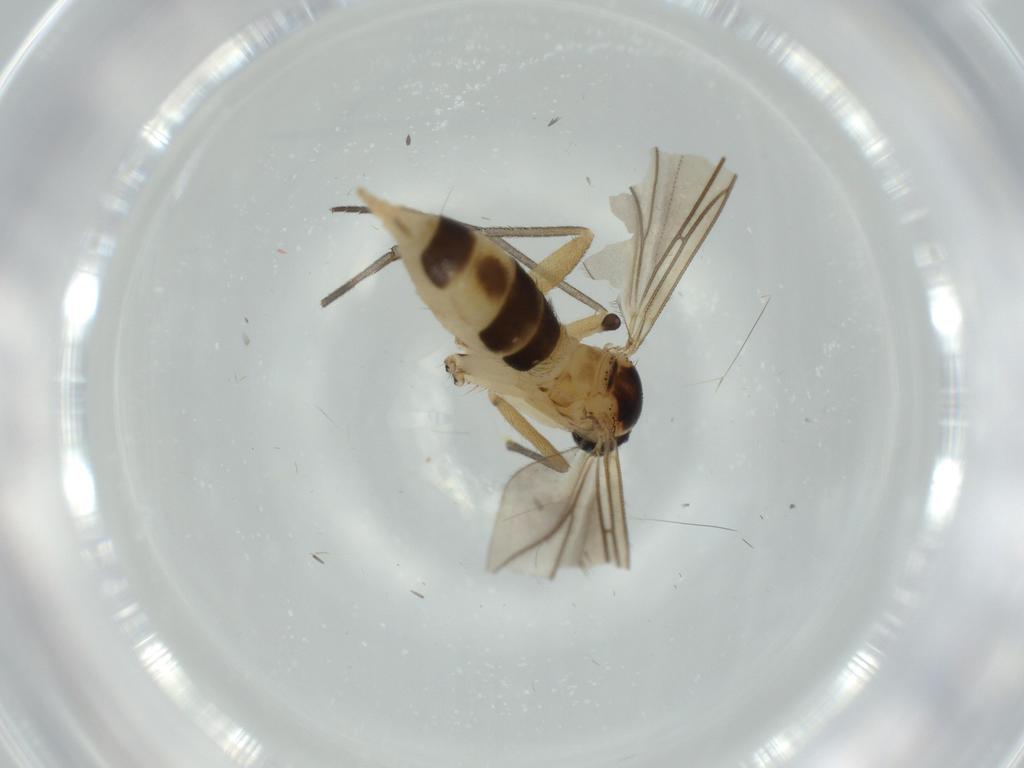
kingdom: Animalia
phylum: Arthropoda
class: Insecta
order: Diptera
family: Sciaridae
